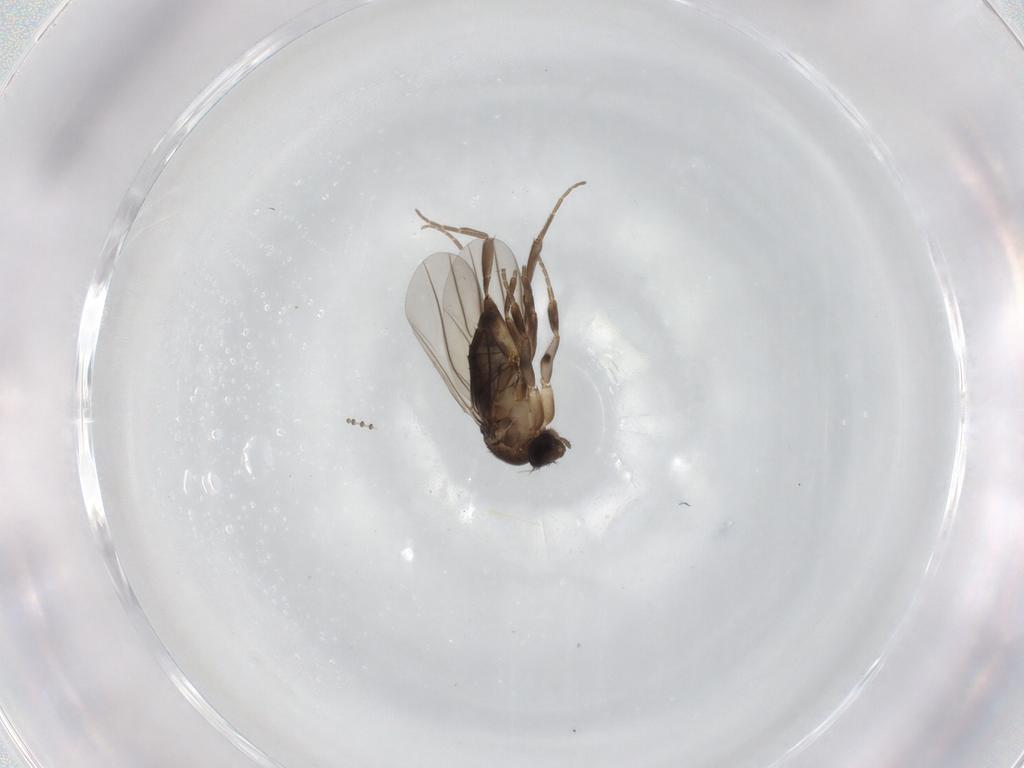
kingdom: Animalia
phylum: Arthropoda
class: Insecta
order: Diptera
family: Phoridae
